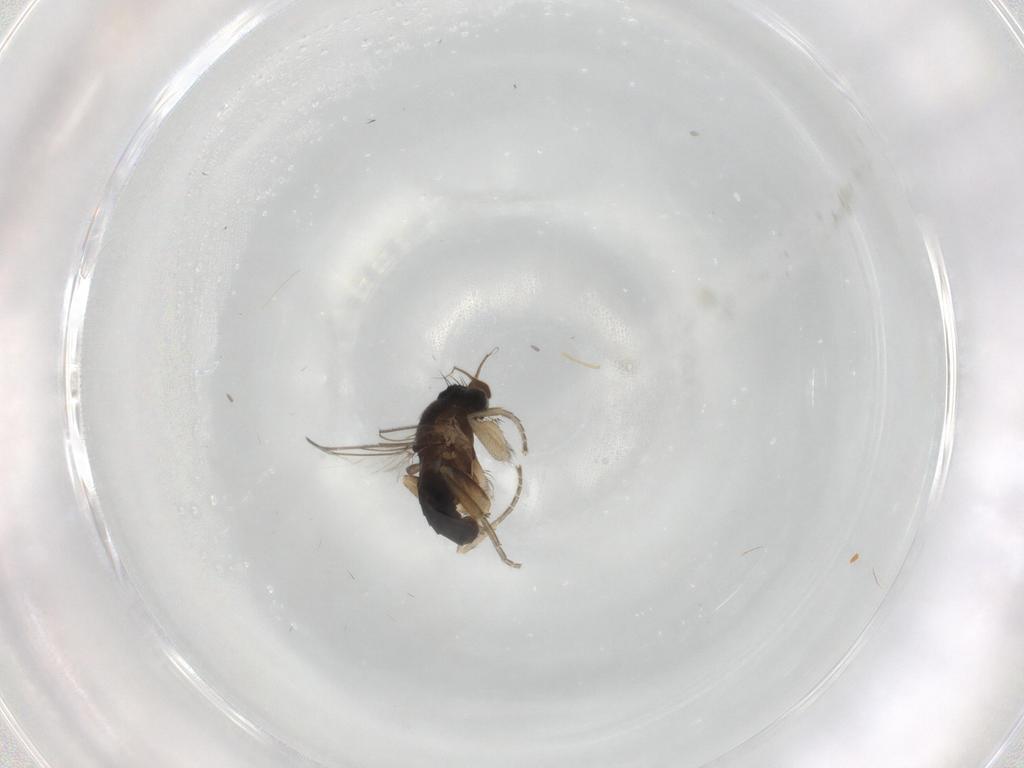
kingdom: Animalia
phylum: Arthropoda
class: Insecta
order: Diptera
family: Phoridae
